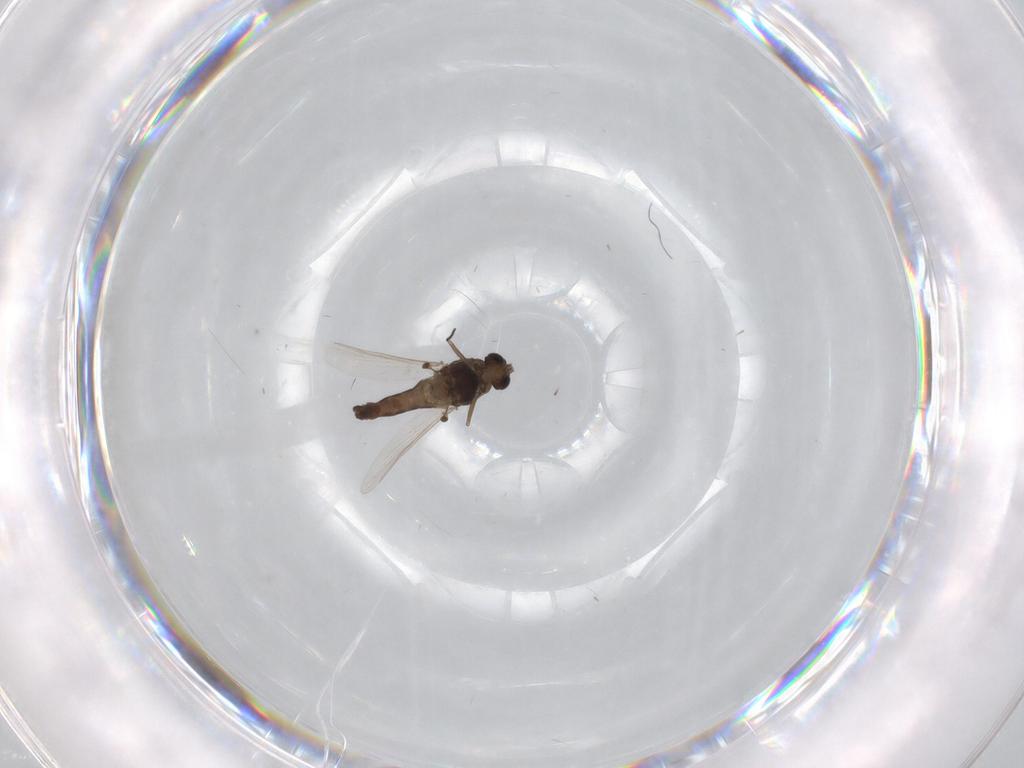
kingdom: Animalia
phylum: Arthropoda
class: Insecta
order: Diptera
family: Chironomidae
